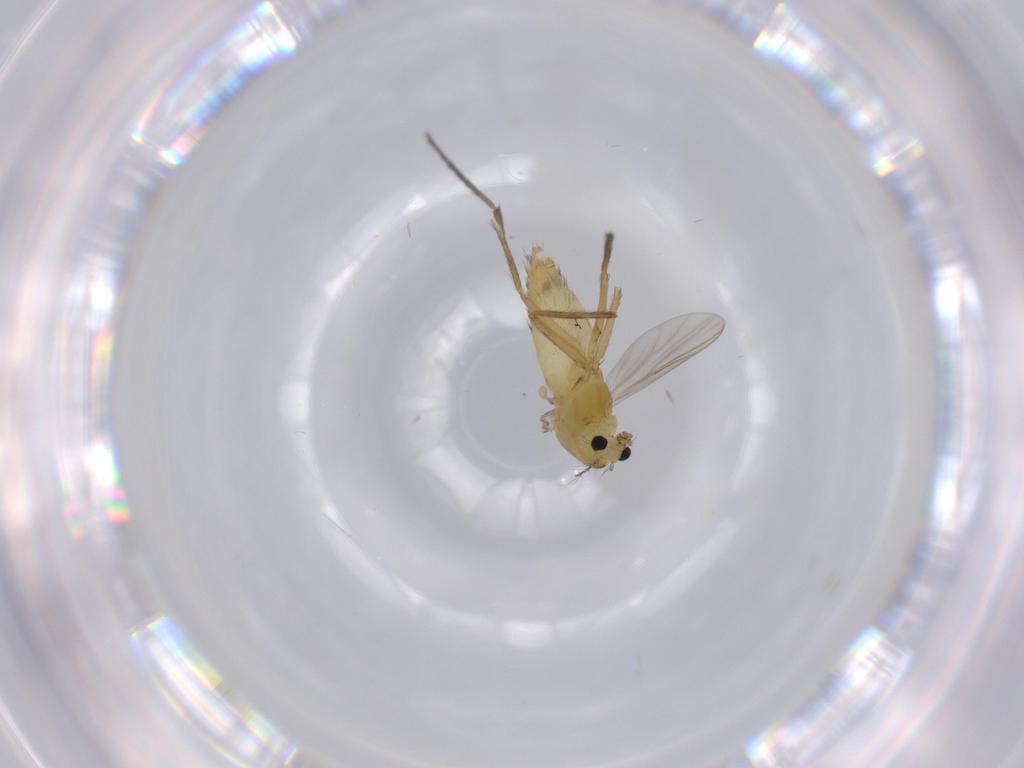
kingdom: Animalia
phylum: Arthropoda
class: Insecta
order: Diptera
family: Chironomidae
